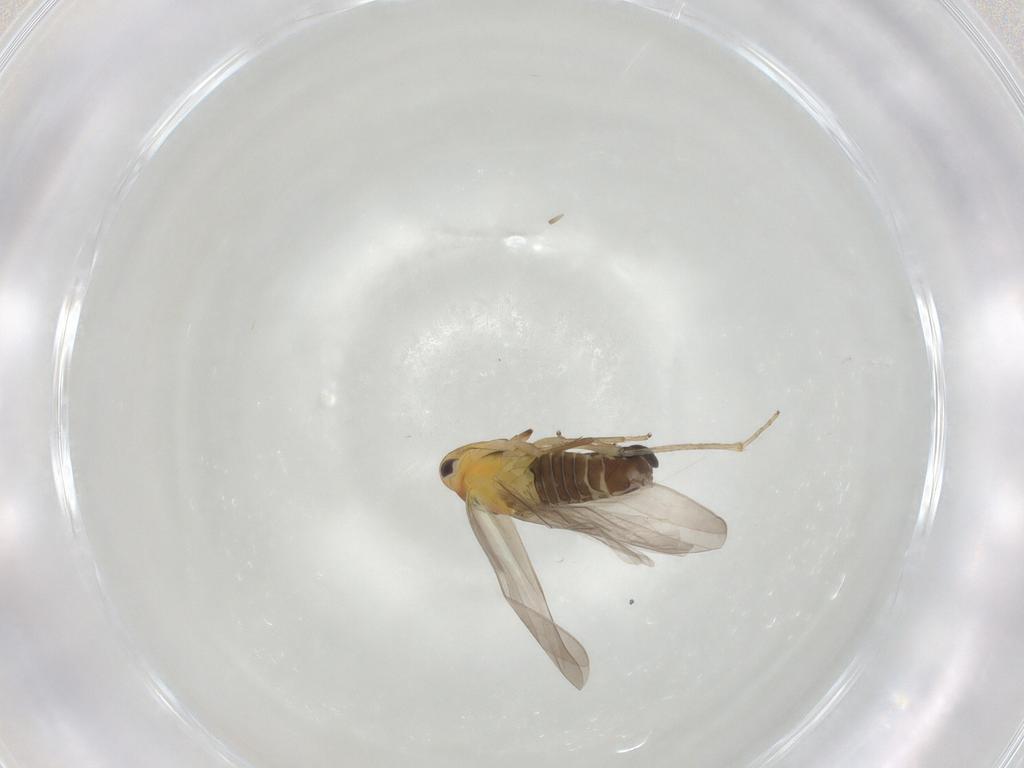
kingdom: Animalia
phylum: Arthropoda
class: Insecta
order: Hemiptera
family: Cicadellidae
